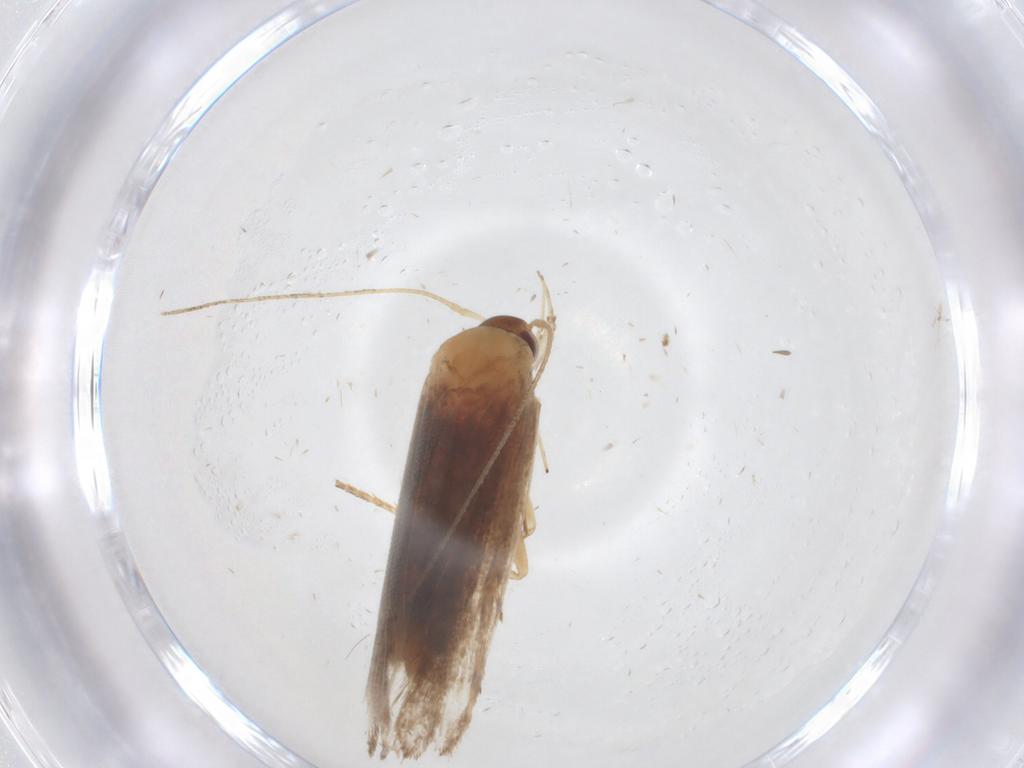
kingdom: Animalia
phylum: Arthropoda
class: Insecta
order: Lepidoptera
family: Gelechiidae
